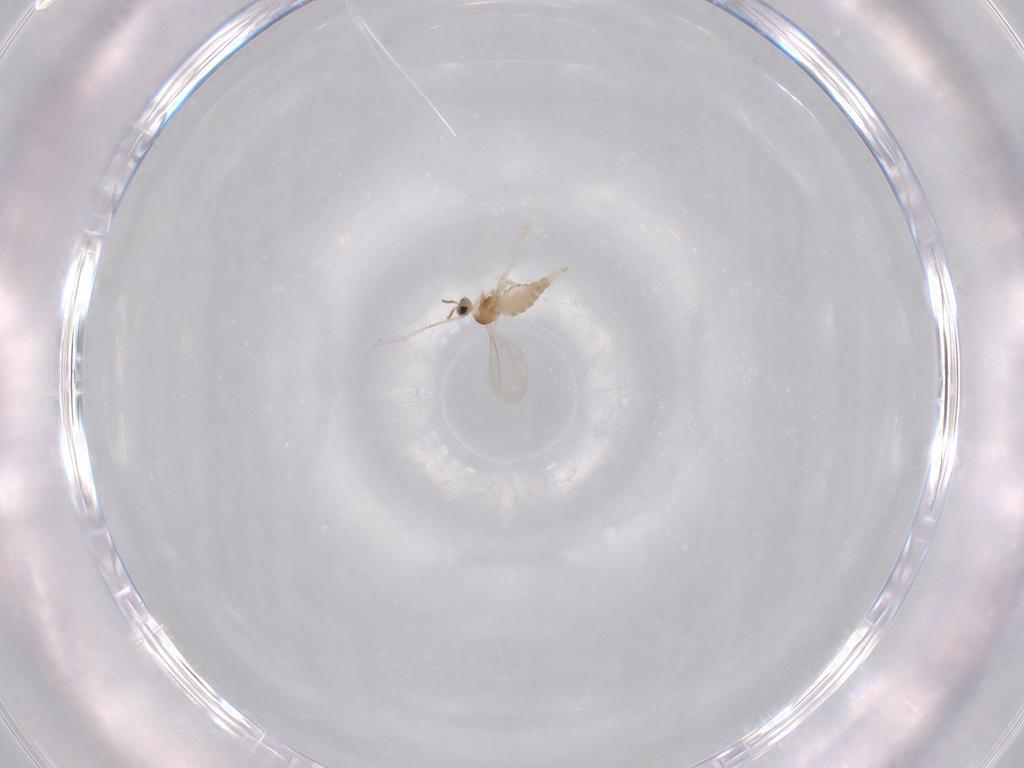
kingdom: Animalia
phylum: Arthropoda
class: Insecta
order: Diptera
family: Cecidomyiidae
